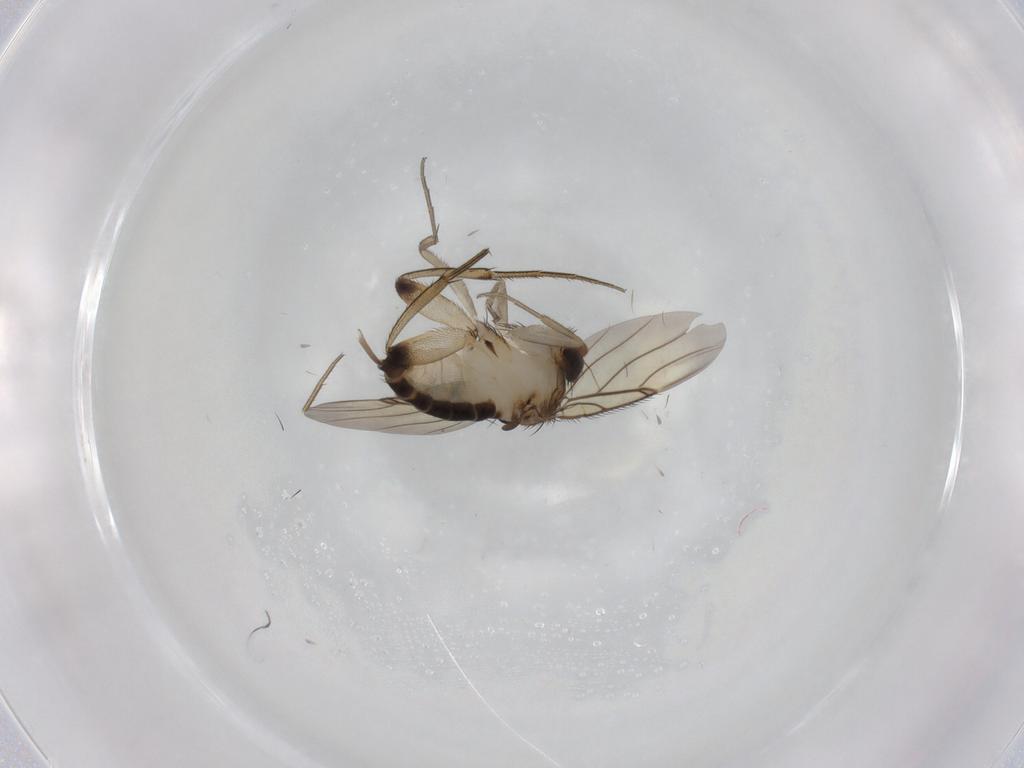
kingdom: Animalia
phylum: Arthropoda
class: Insecta
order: Diptera
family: Phoridae
